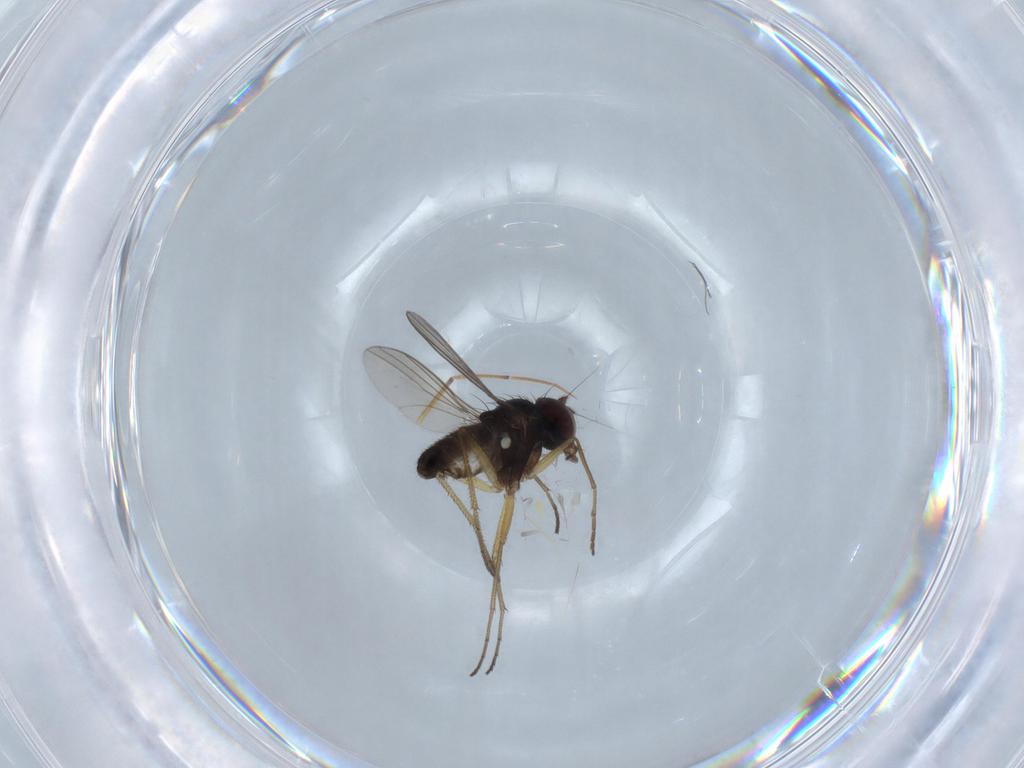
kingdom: Animalia
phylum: Arthropoda
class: Insecta
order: Diptera
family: Dolichopodidae
